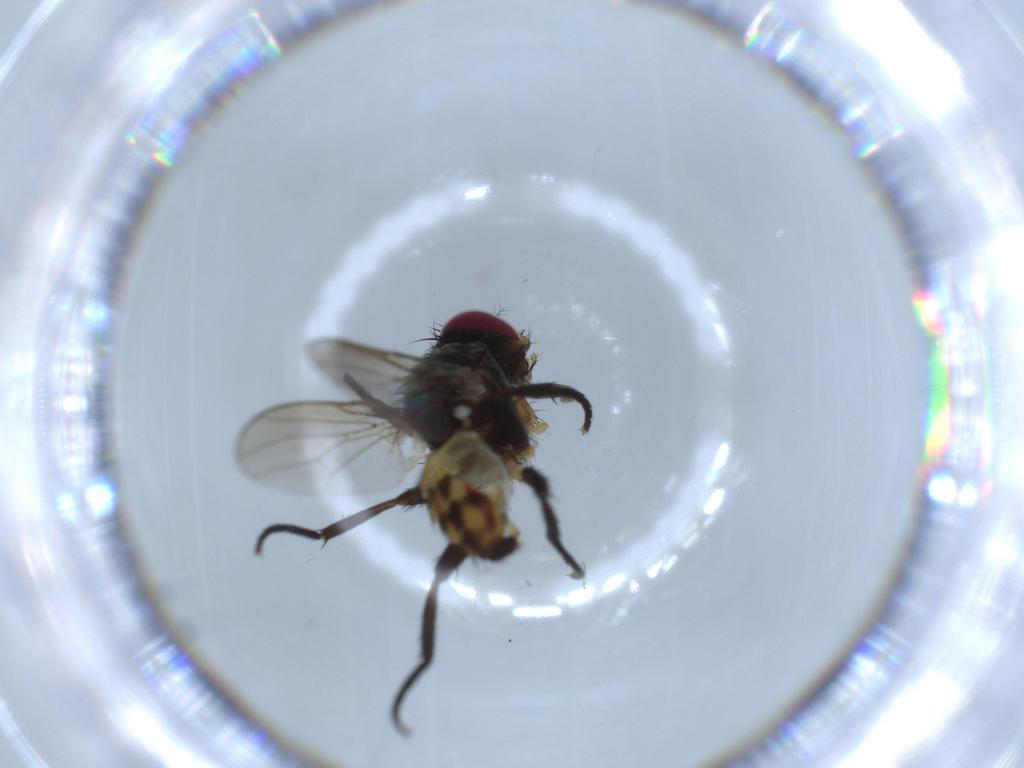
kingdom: Animalia
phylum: Arthropoda
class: Insecta
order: Diptera
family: Anthomyiidae
